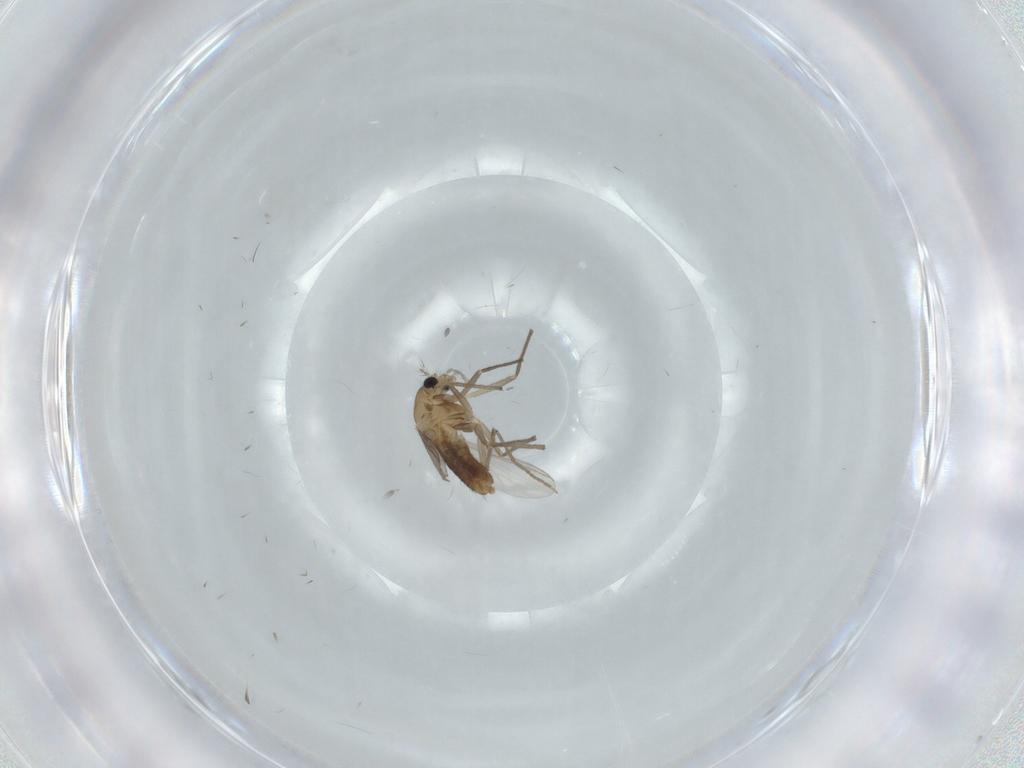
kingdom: Animalia
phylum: Arthropoda
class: Insecta
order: Diptera
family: Chironomidae
